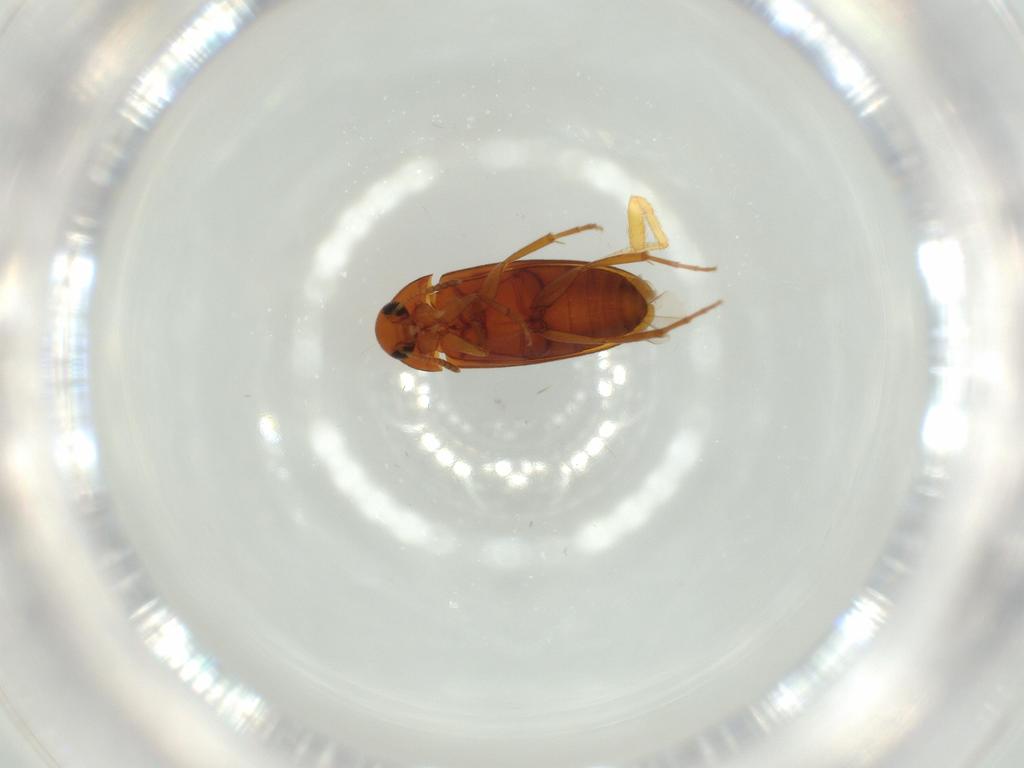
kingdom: Animalia
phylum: Arthropoda
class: Insecta
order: Coleoptera
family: Scraptiidae
